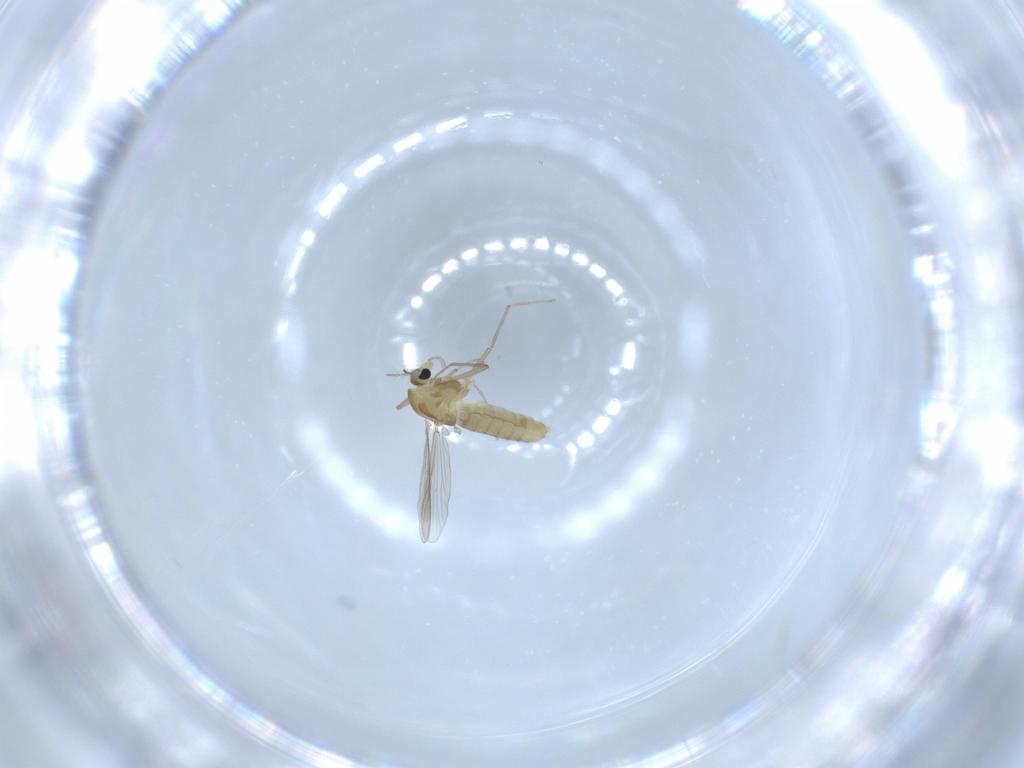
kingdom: Animalia
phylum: Arthropoda
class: Insecta
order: Diptera
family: Chironomidae
